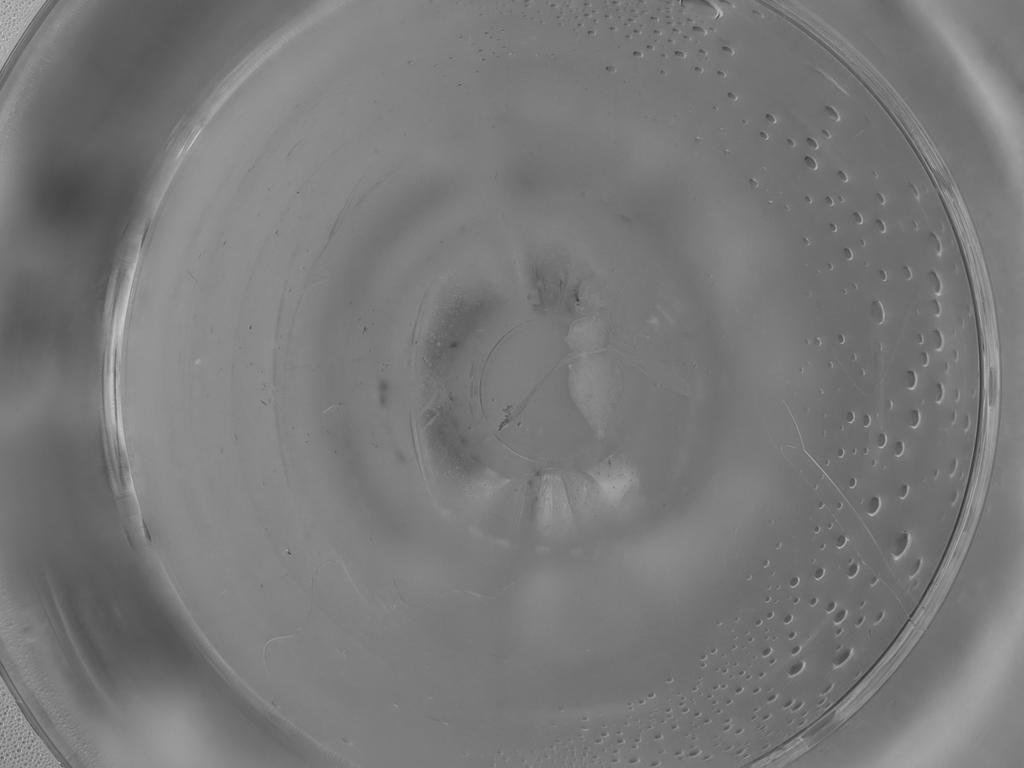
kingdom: Animalia
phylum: Arthropoda
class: Insecta
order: Diptera
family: Ceratopogonidae
